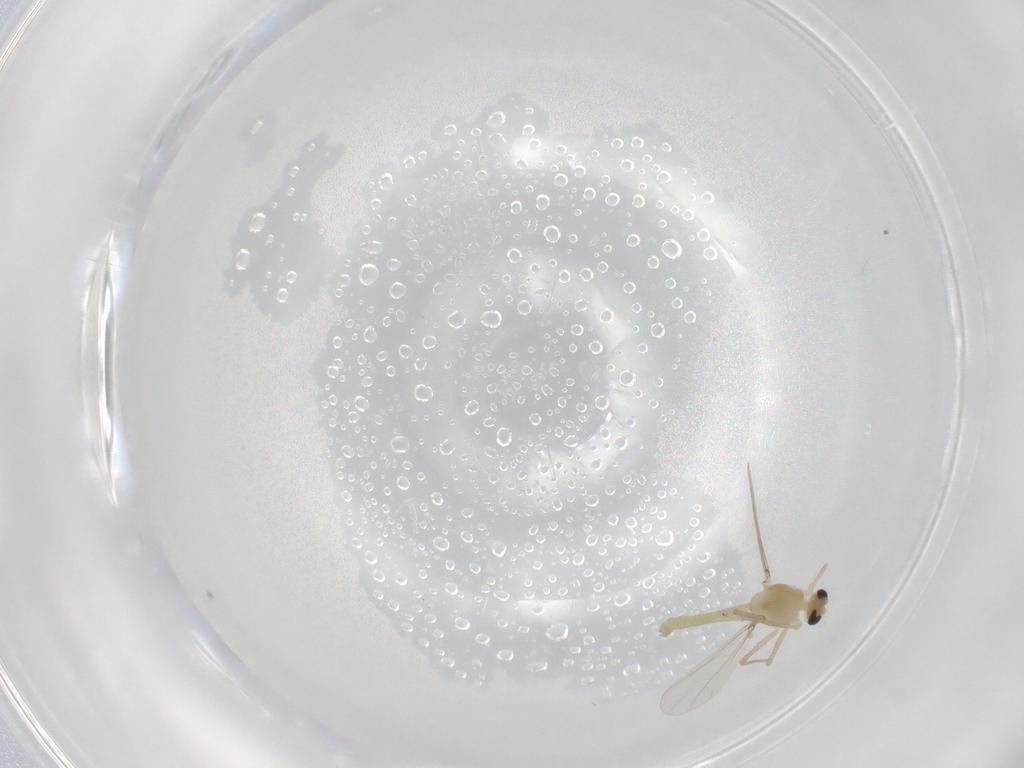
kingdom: Animalia
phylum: Arthropoda
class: Insecta
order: Diptera
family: Chironomidae
